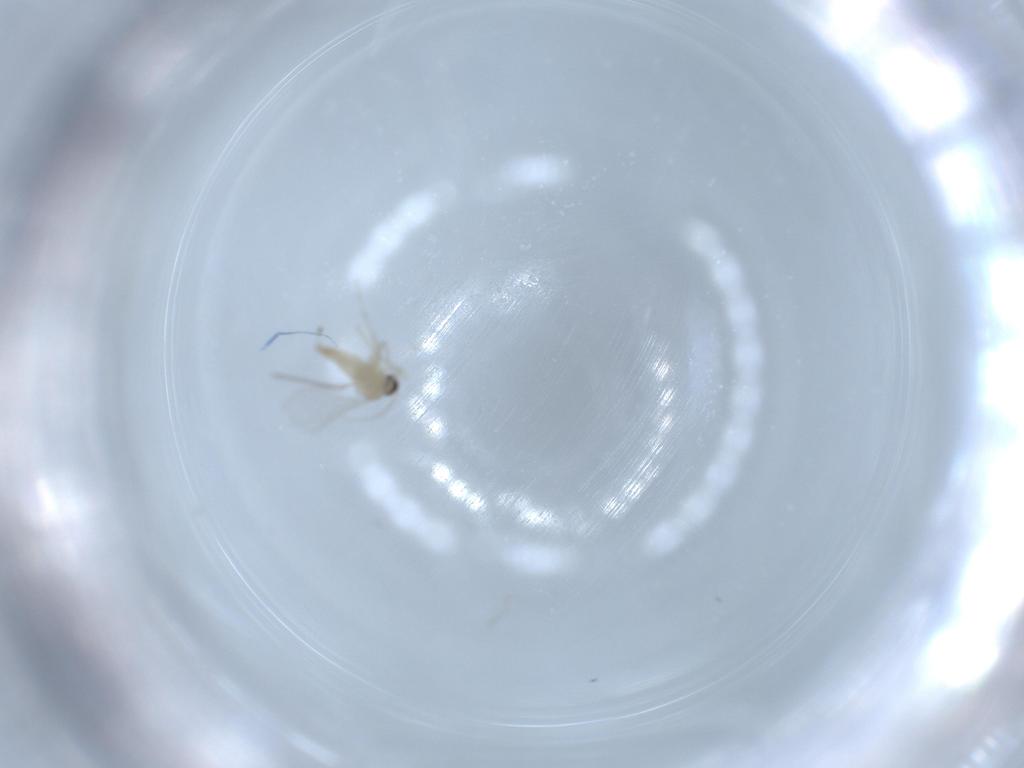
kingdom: Animalia
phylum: Arthropoda
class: Insecta
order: Diptera
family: Cecidomyiidae
